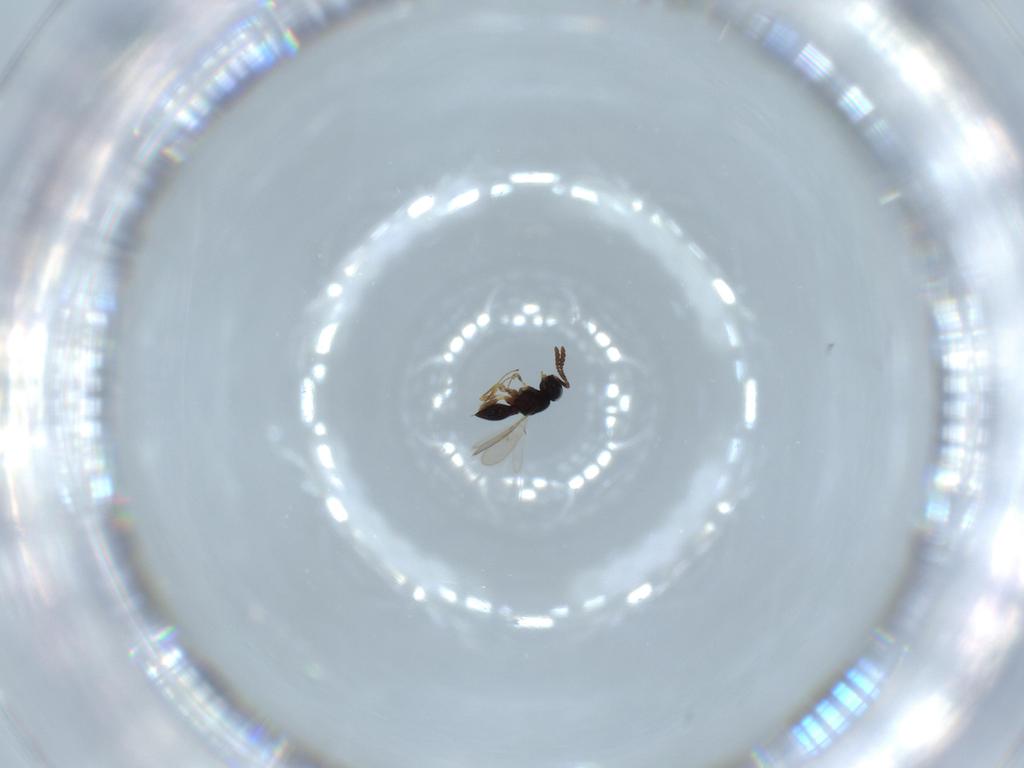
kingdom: Animalia
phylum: Arthropoda
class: Insecta
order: Hymenoptera
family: Scelionidae
